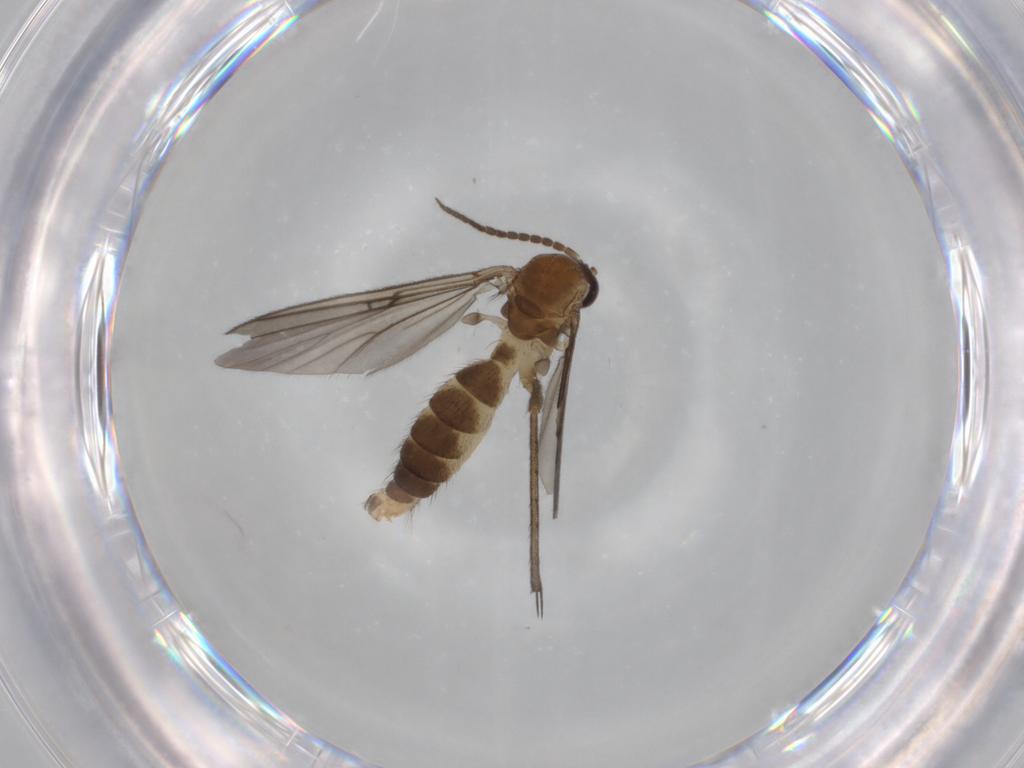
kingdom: Animalia
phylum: Arthropoda
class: Insecta
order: Diptera
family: Cecidomyiidae
